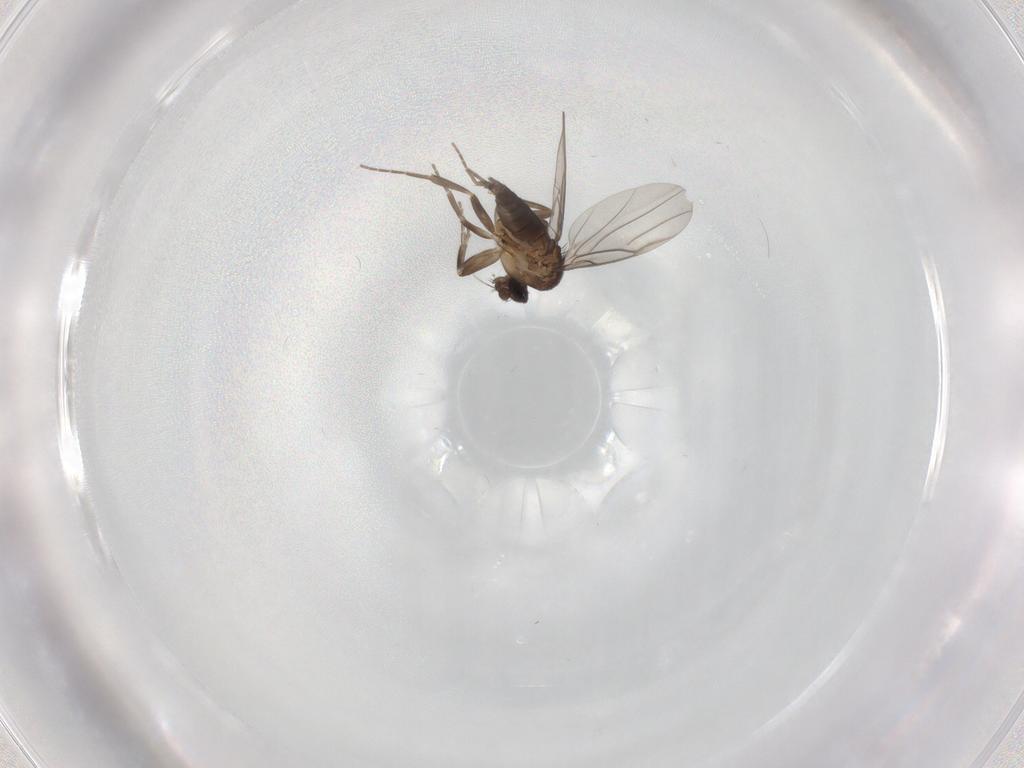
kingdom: Animalia
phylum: Arthropoda
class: Insecta
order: Diptera
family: Phoridae
